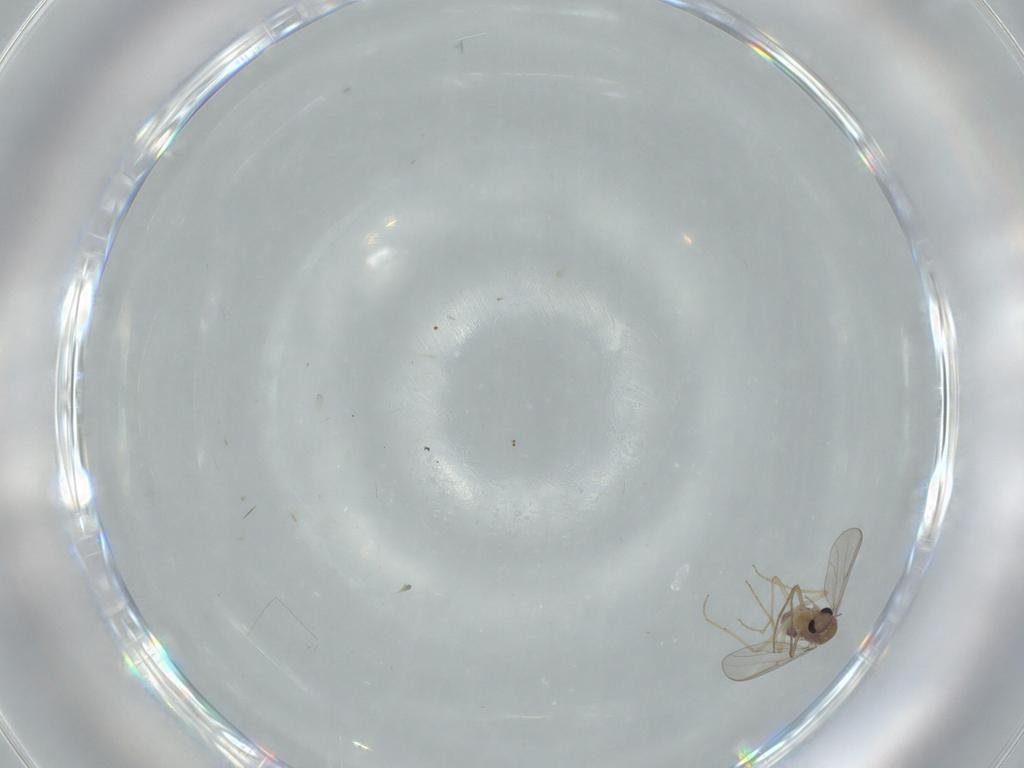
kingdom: Animalia
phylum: Arthropoda
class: Insecta
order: Diptera
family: Chironomidae
